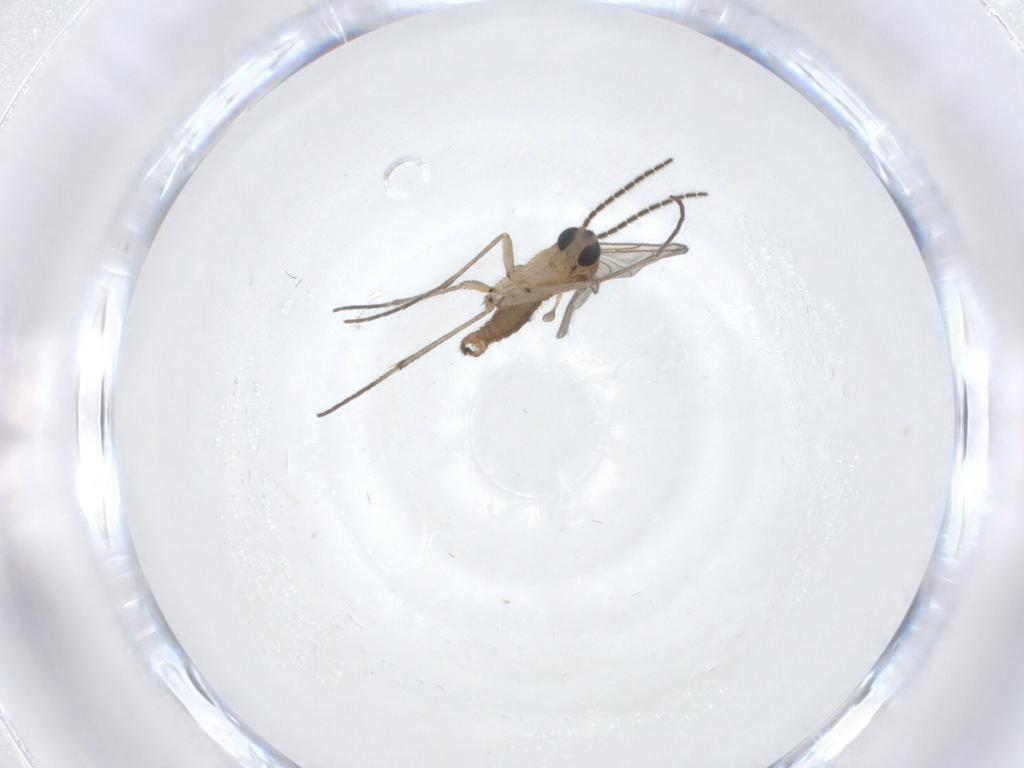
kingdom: Animalia
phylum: Arthropoda
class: Insecta
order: Diptera
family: Sciaridae
